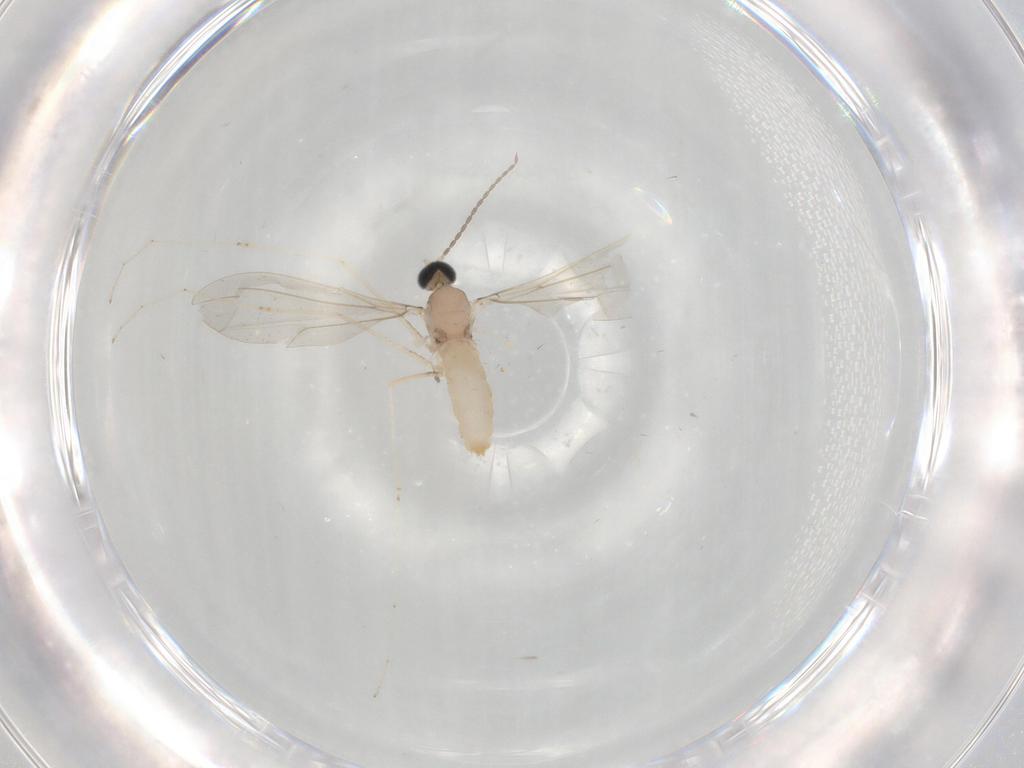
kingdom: Animalia
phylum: Arthropoda
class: Insecta
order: Diptera
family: Cecidomyiidae
